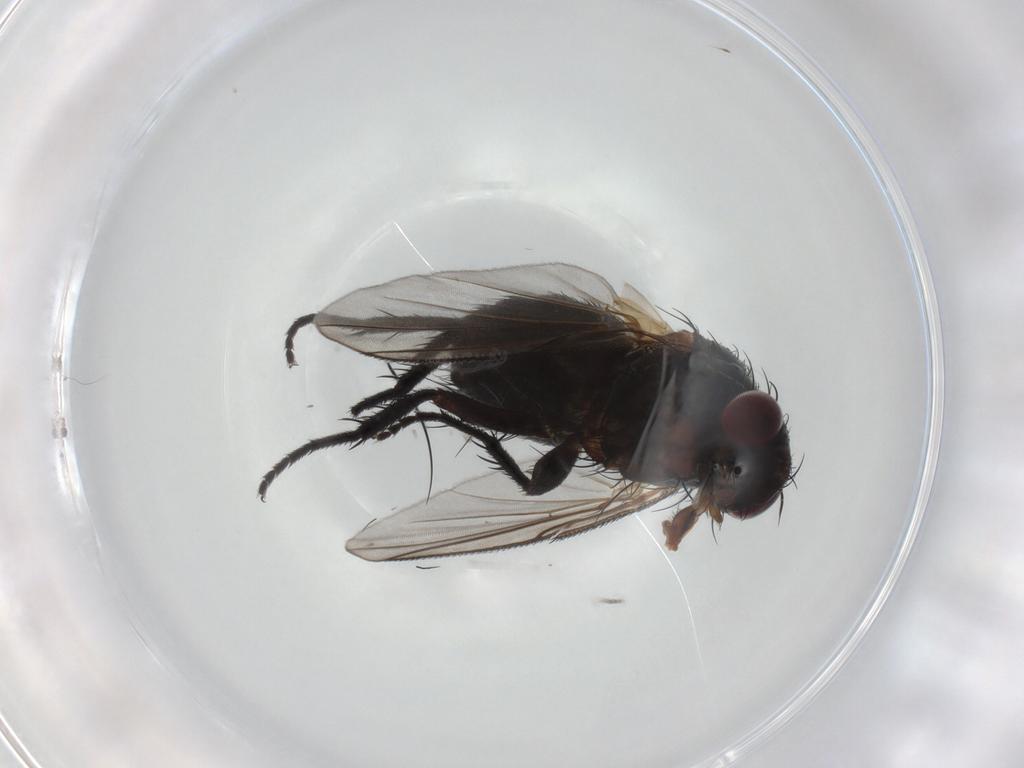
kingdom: Animalia
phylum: Arthropoda
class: Insecta
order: Diptera
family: Tachinidae
